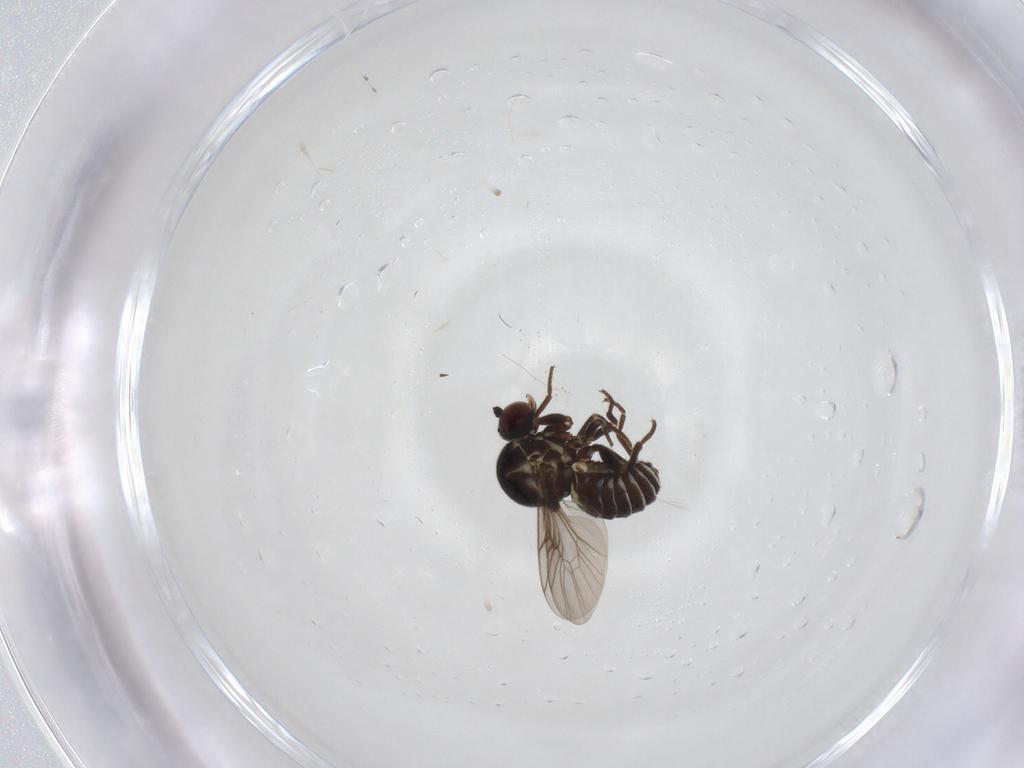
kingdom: Animalia
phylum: Arthropoda
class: Insecta
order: Diptera
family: Mythicomyiidae
